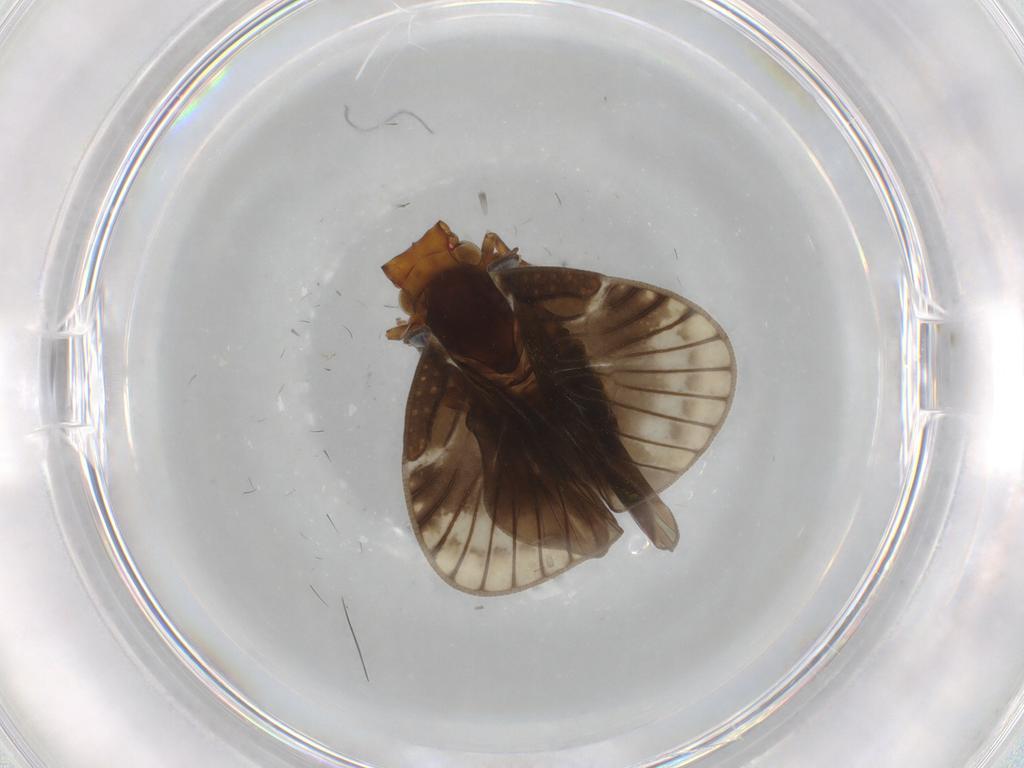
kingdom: Animalia
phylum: Arthropoda
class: Insecta
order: Hemiptera
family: Cixiidae
